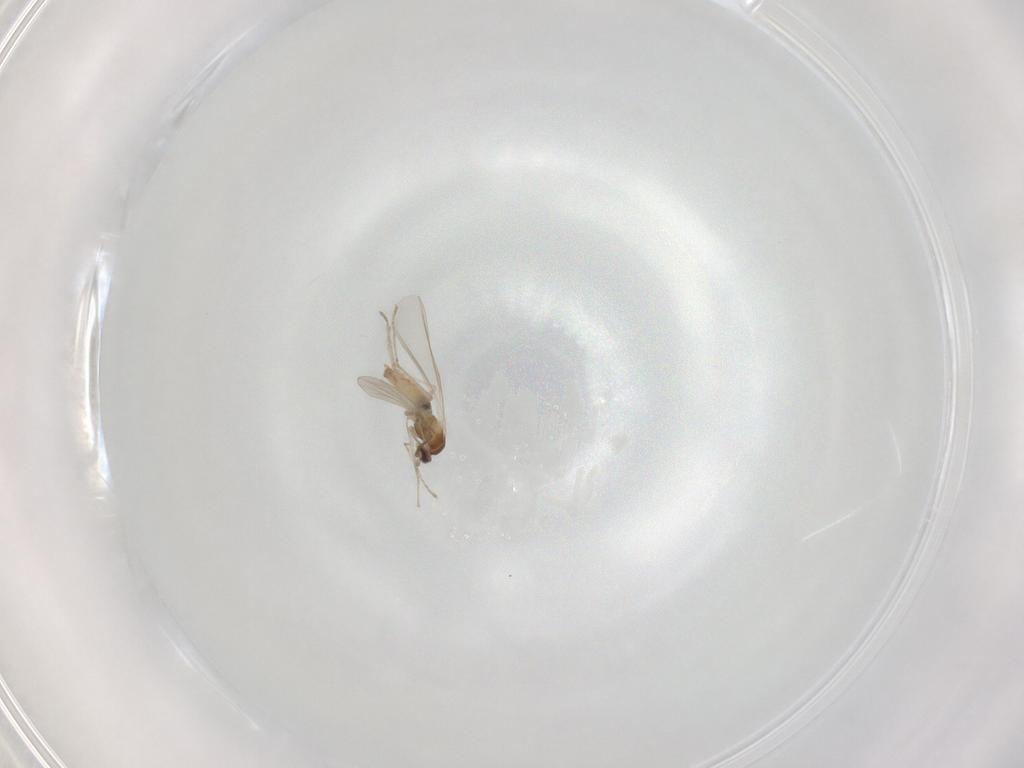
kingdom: Animalia
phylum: Arthropoda
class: Insecta
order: Diptera
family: Cecidomyiidae
